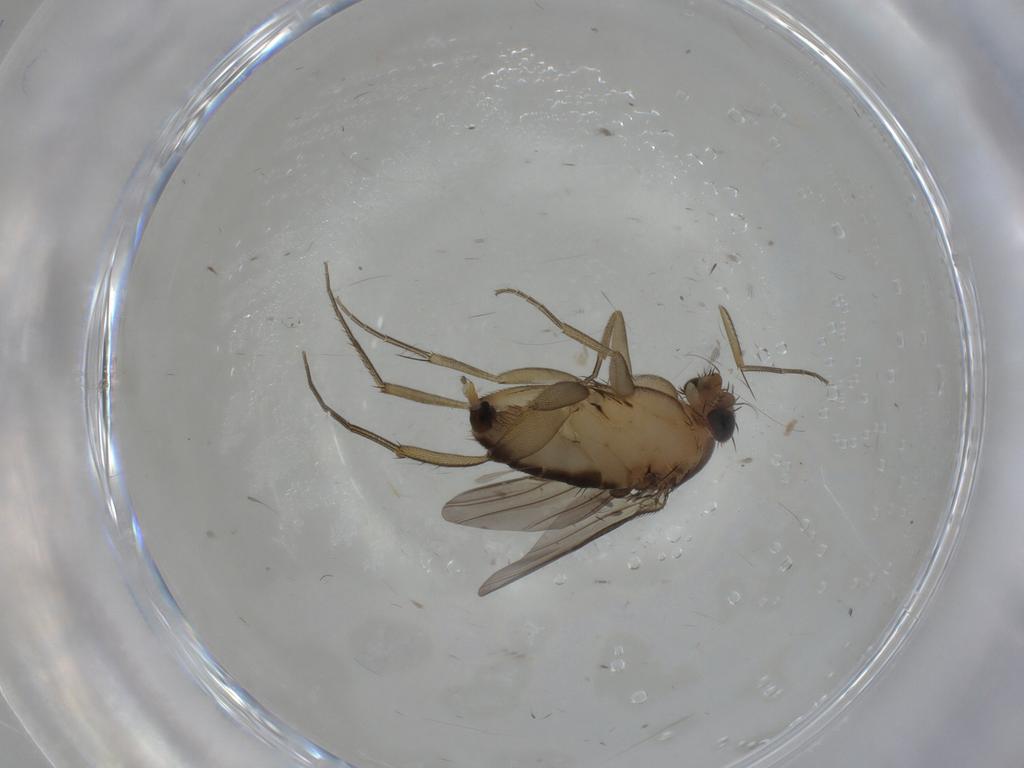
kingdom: Animalia
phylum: Arthropoda
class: Insecta
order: Diptera
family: Phoridae
